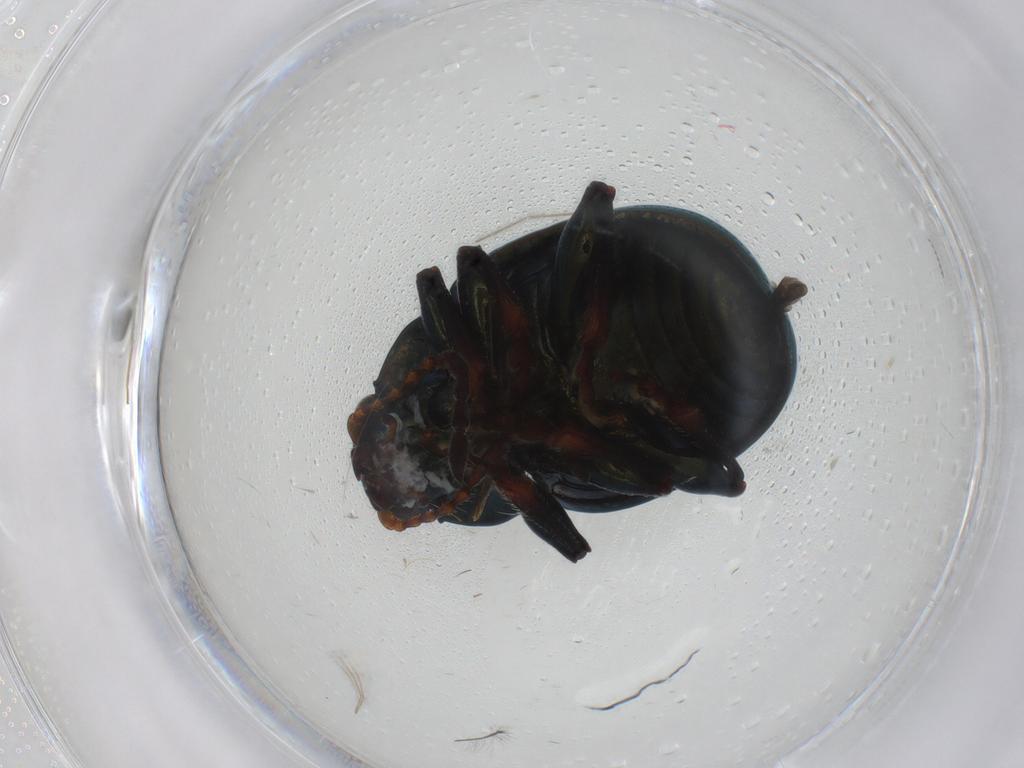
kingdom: Animalia
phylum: Arthropoda
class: Insecta
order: Coleoptera
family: Chrysomelidae
